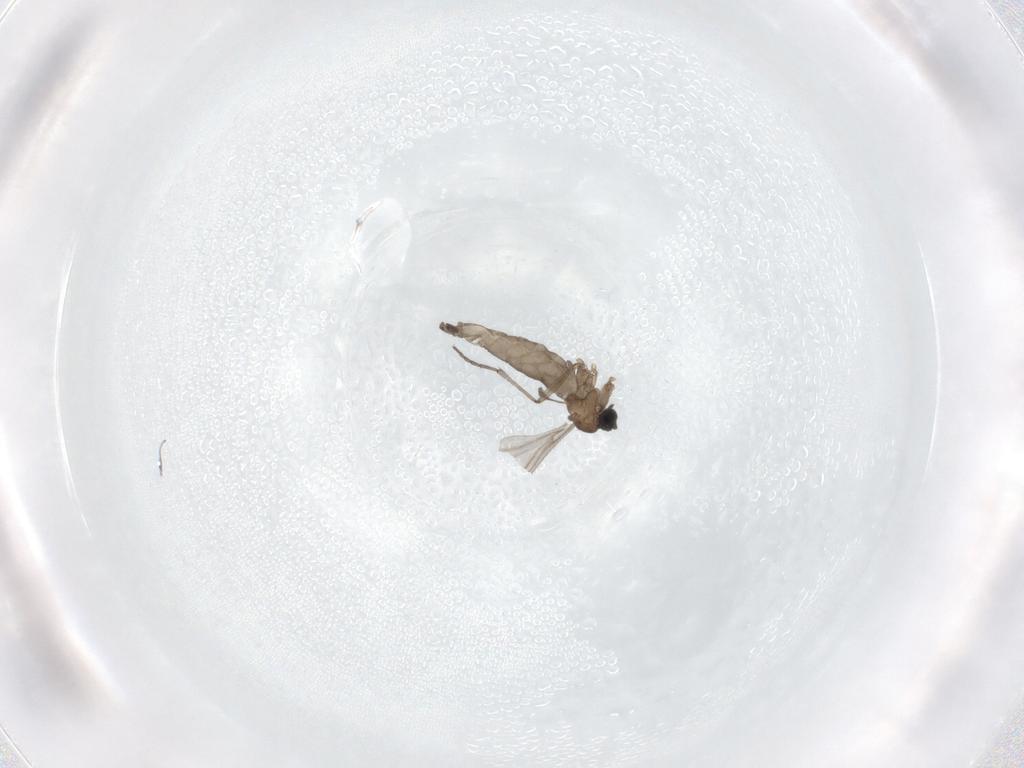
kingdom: Animalia
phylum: Arthropoda
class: Insecta
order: Diptera
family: Sciaridae
